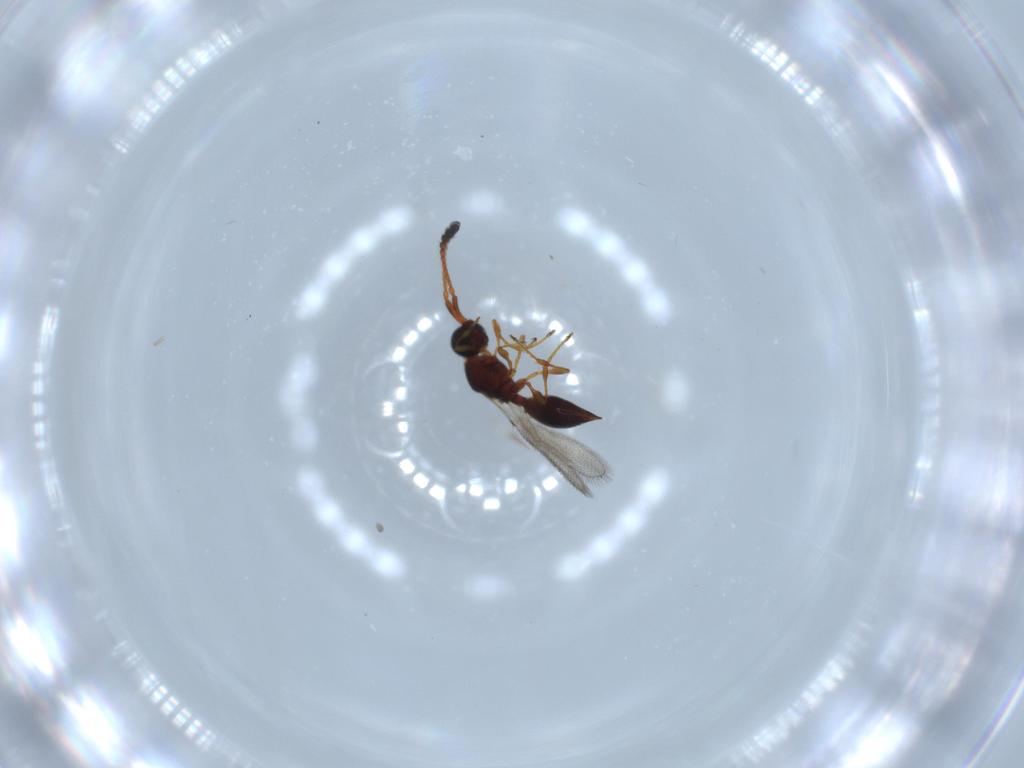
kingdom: Animalia
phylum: Arthropoda
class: Insecta
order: Hymenoptera
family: Diapriidae
